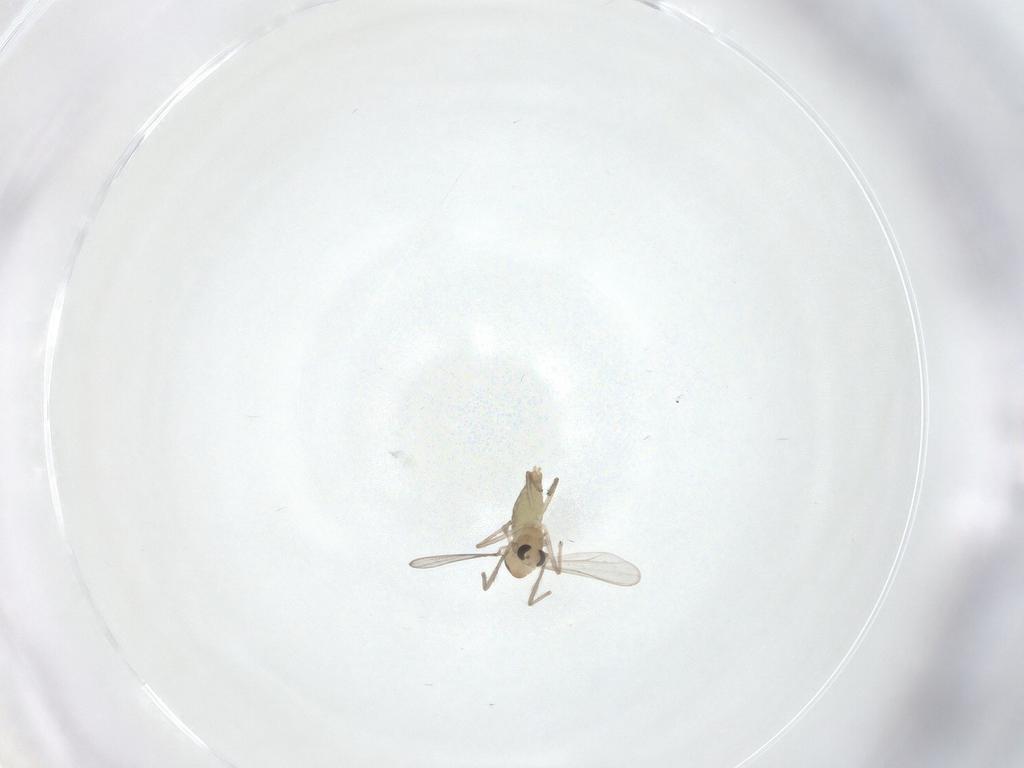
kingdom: Animalia
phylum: Arthropoda
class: Insecta
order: Diptera
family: Chironomidae
